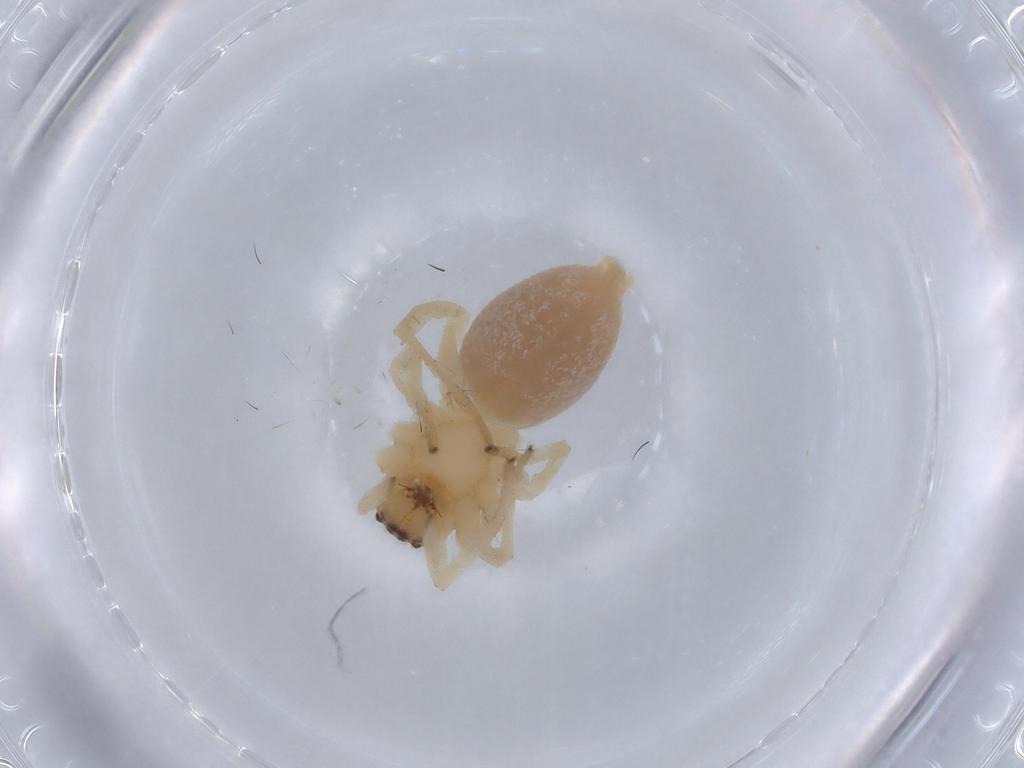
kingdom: Animalia
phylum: Arthropoda
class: Arachnida
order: Araneae
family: Cheiracanthiidae
